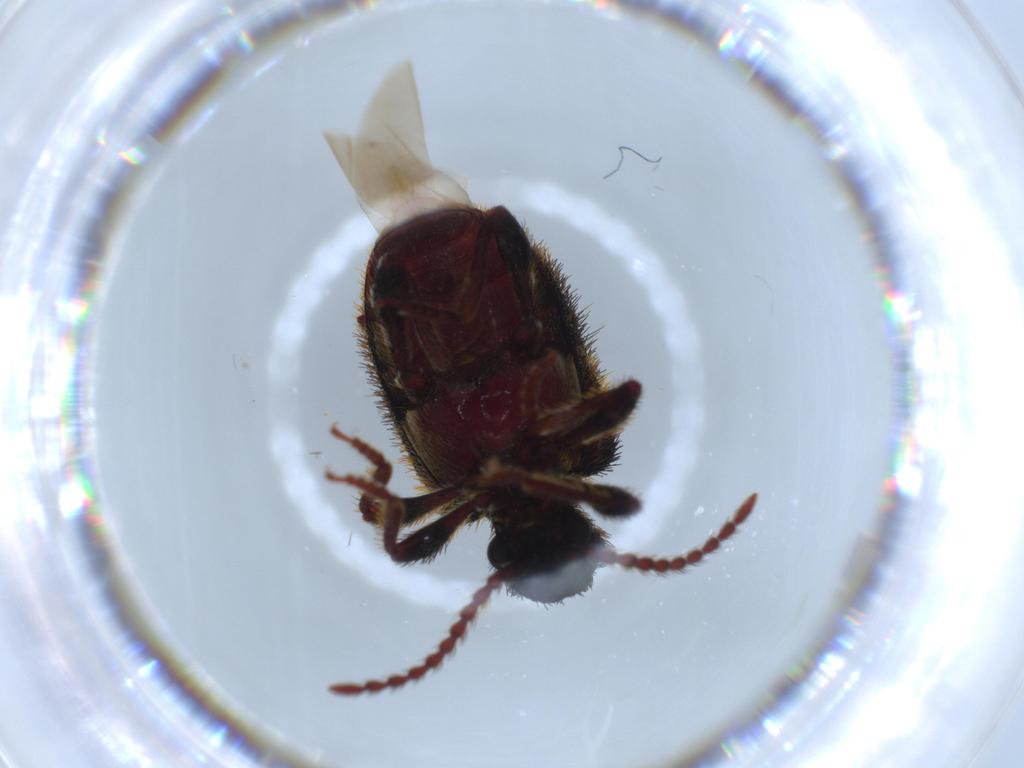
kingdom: Animalia
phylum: Arthropoda
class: Insecta
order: Coleoptera
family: Ptinidae
